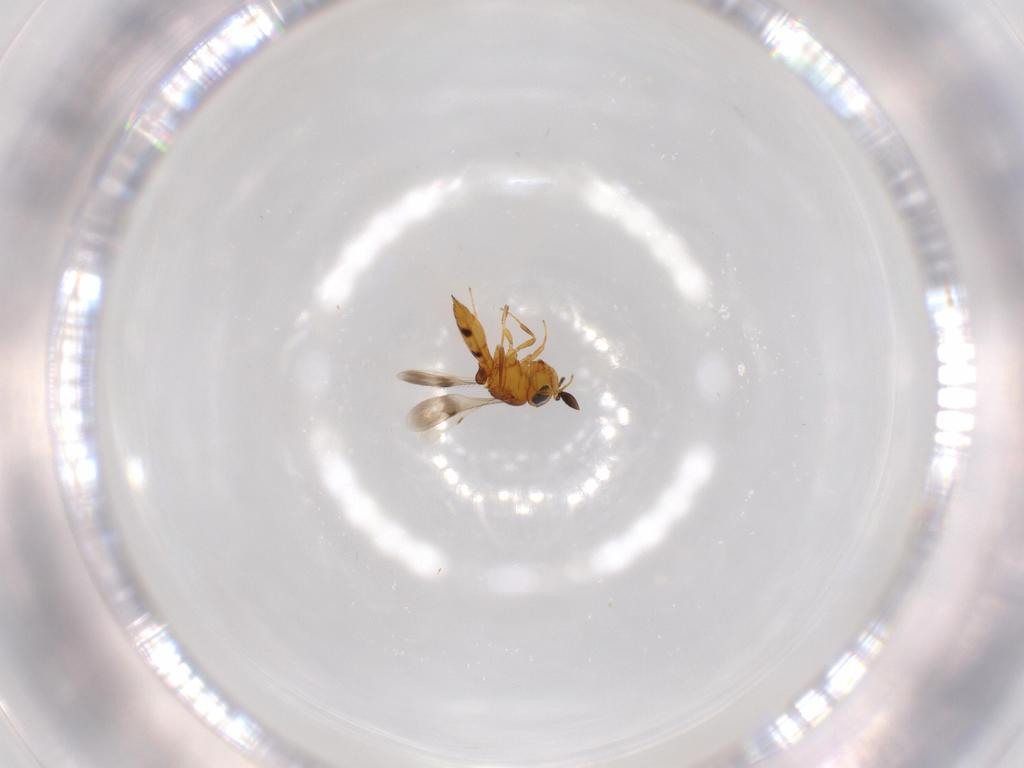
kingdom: Animalia
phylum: Arthropoda
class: Insecta
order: Hymenoptera
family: Scelionidae
